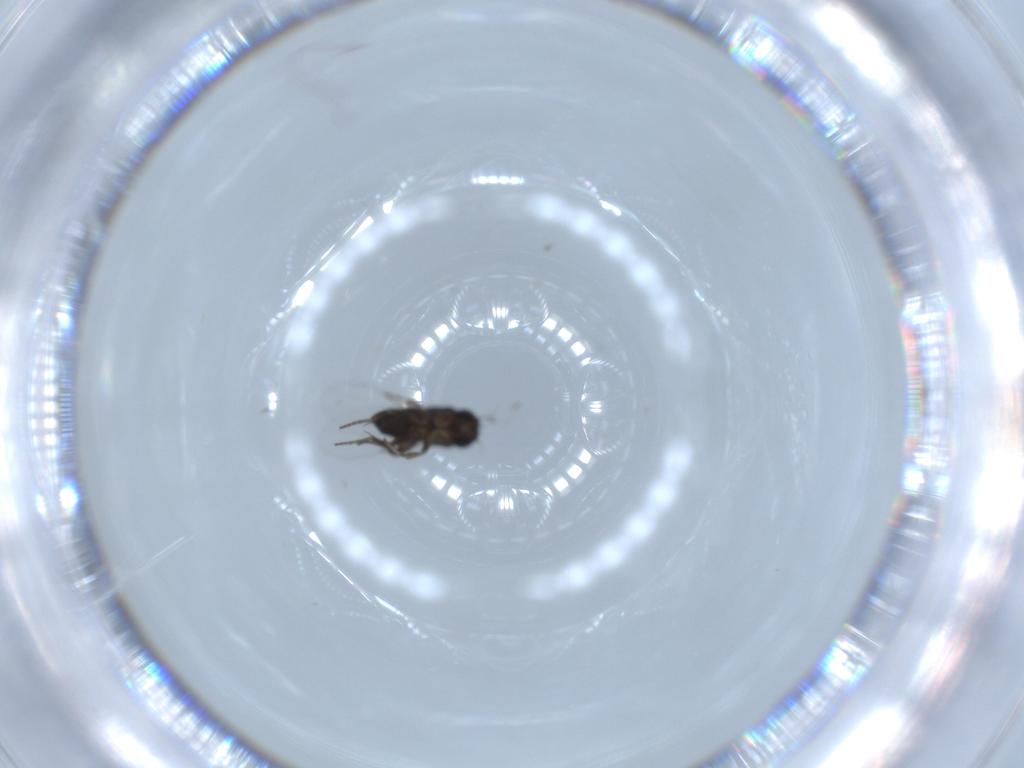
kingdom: Animalia
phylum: Arthropoda
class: Insecta
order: Diptera
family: Phoridae
